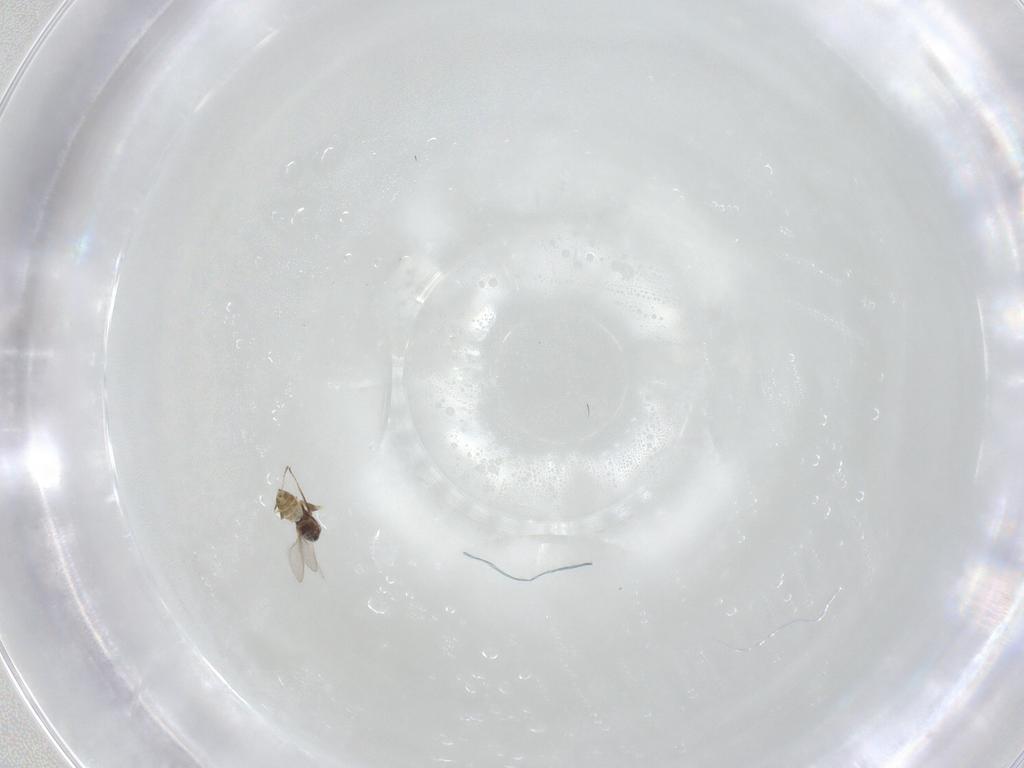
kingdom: Animalia
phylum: Arthropoda
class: Insecta
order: Hymenoptera
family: Mymaridae
